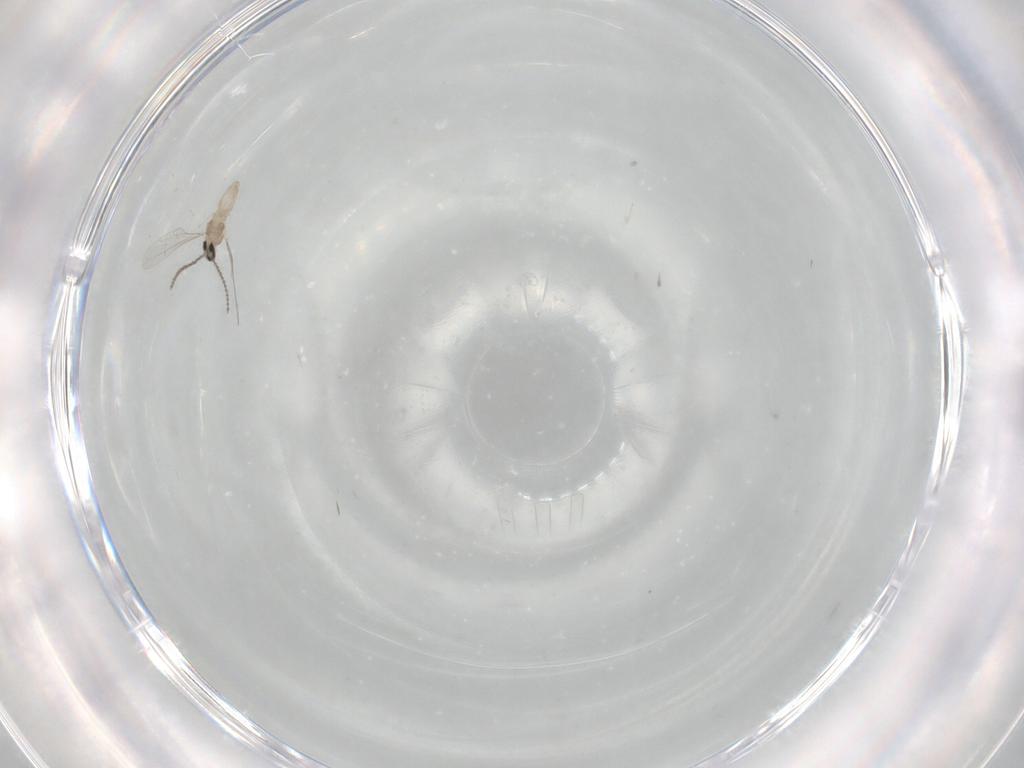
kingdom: Animalia
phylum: Arthropoda
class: Insecta
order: Diptera
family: Cecidomyiidae
